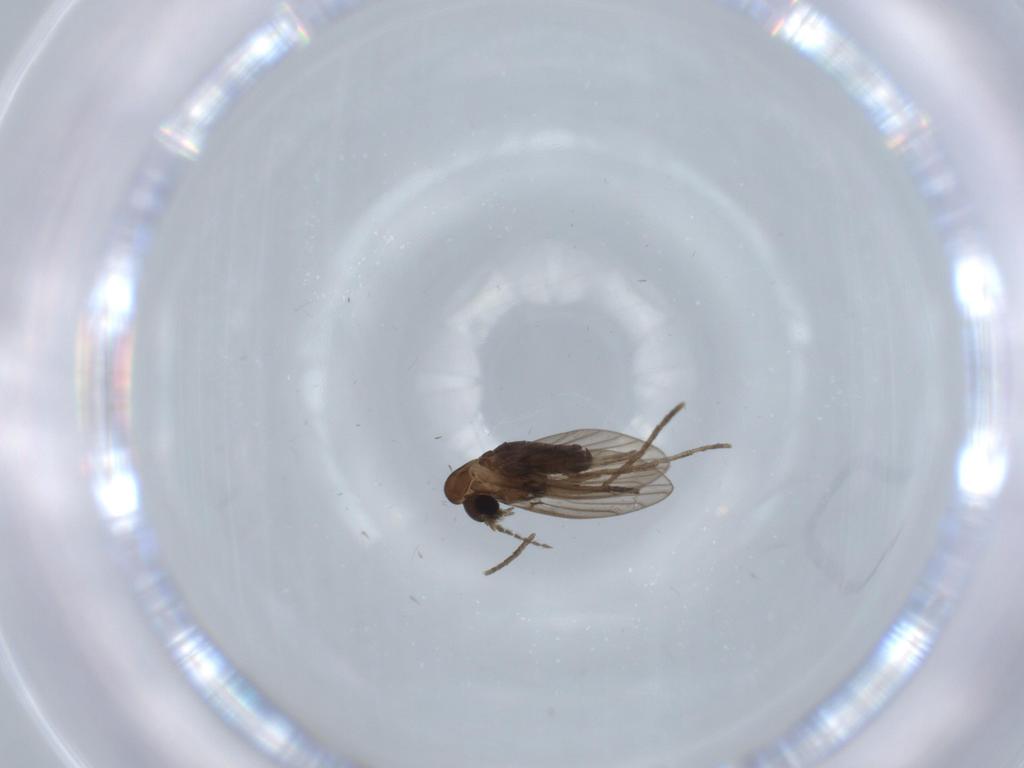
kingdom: Animalia
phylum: Arthropoda
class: Insecta
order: Diptera
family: Psychodidae
